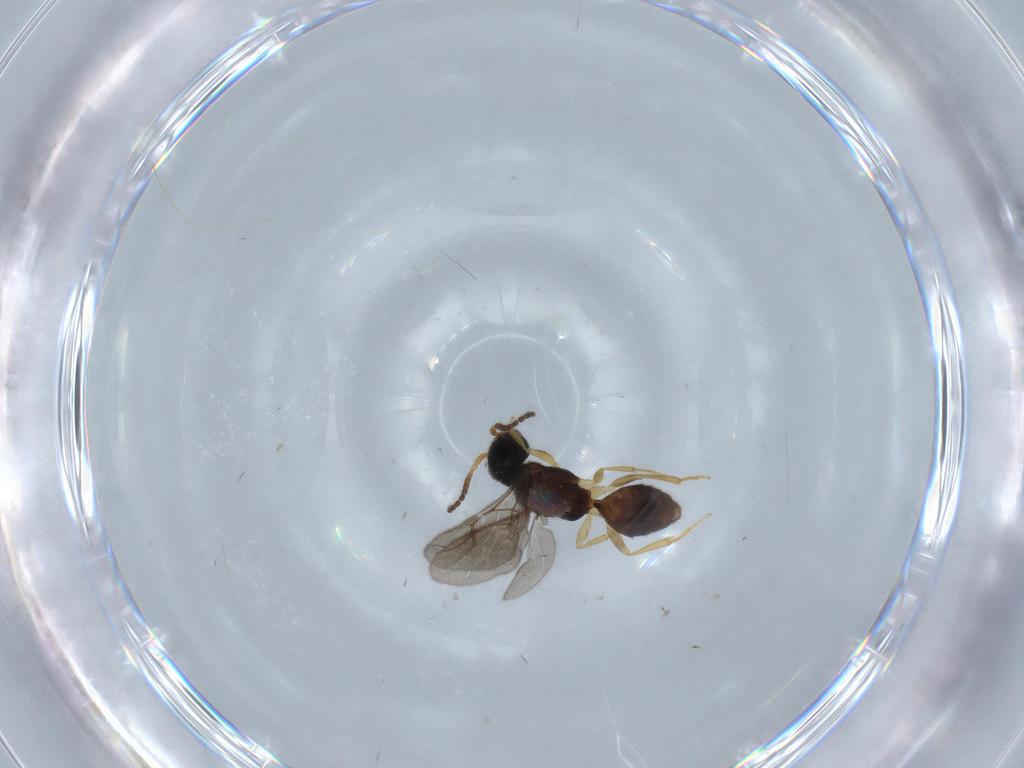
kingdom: Animalia
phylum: Arthropoda
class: Insecta
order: Hymenoptera
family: Bethylidae
